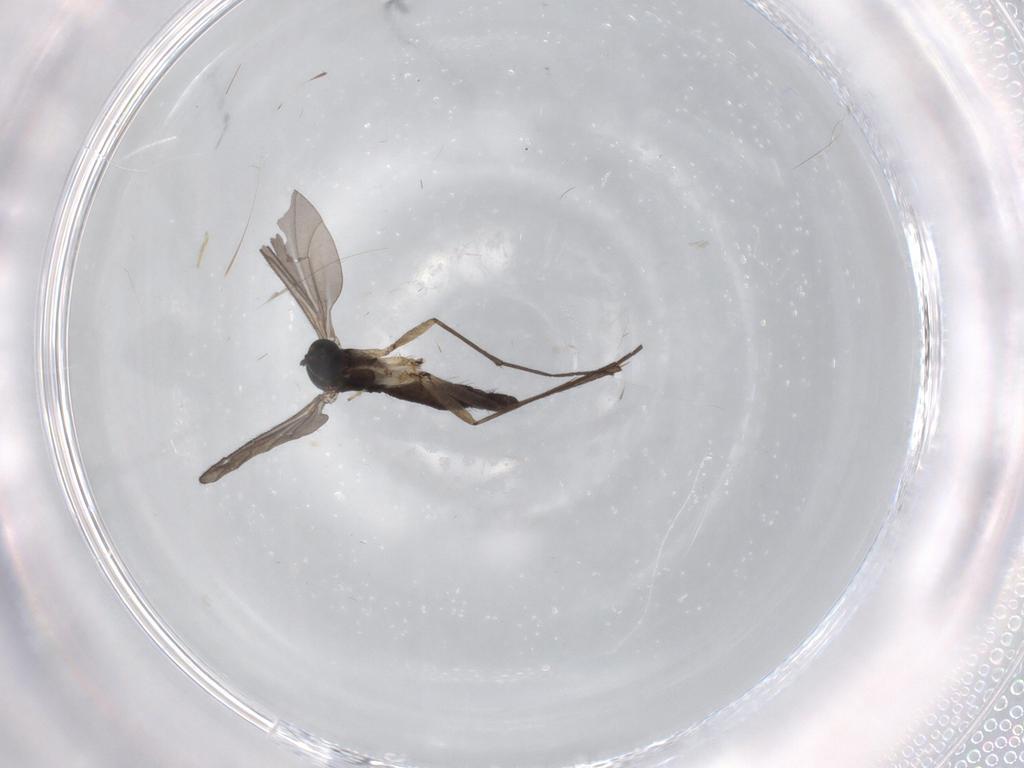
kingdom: Animalia
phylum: Arthropoda
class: Insecta
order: Diptera
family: Sciaridae
